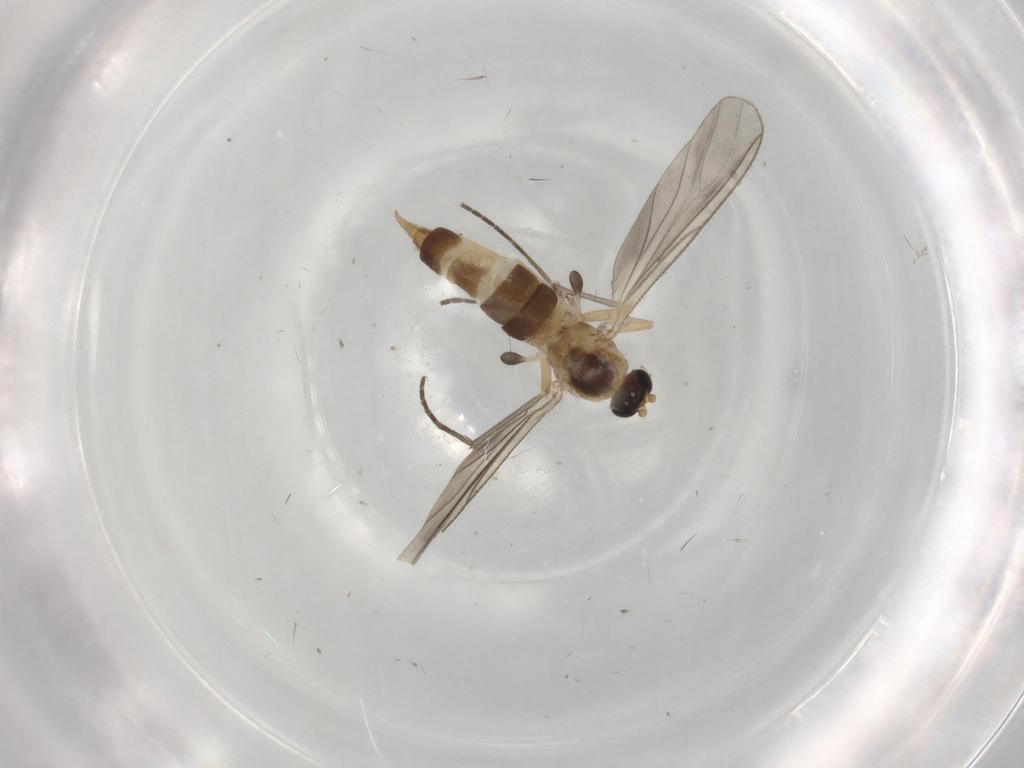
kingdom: Animalia
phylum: Arthropoda
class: Insecta
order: Diptera
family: Sciaridae
